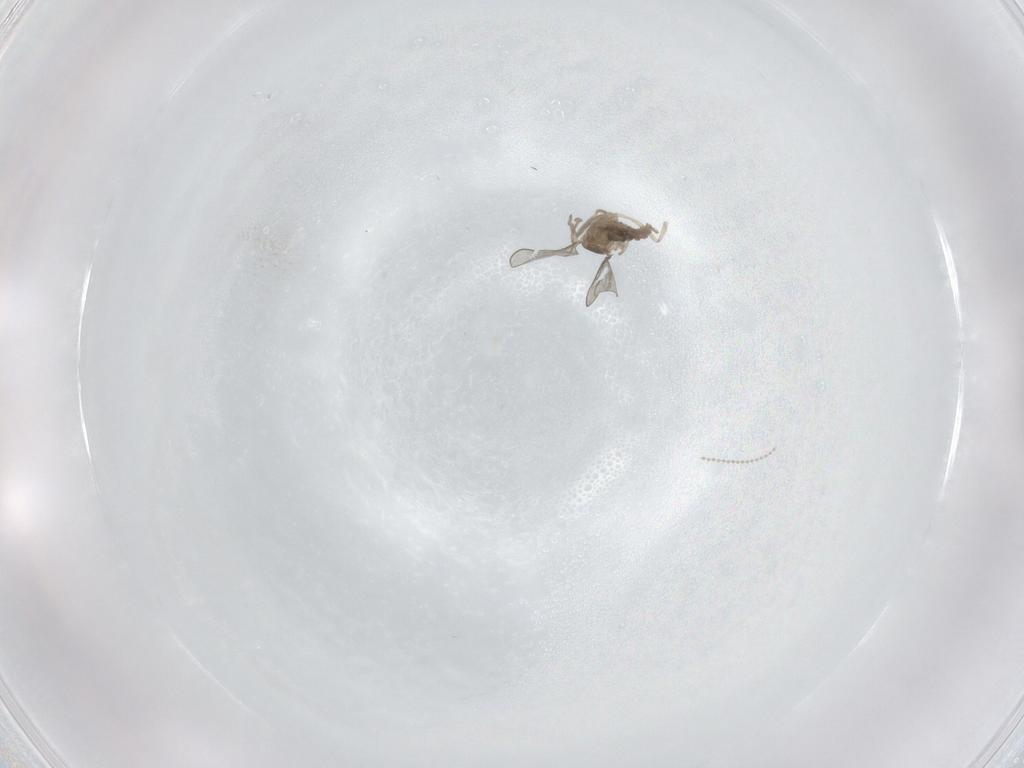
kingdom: Animalia
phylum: Arthropoda
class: Insecta
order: Diptera
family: Cecidomyiidae
